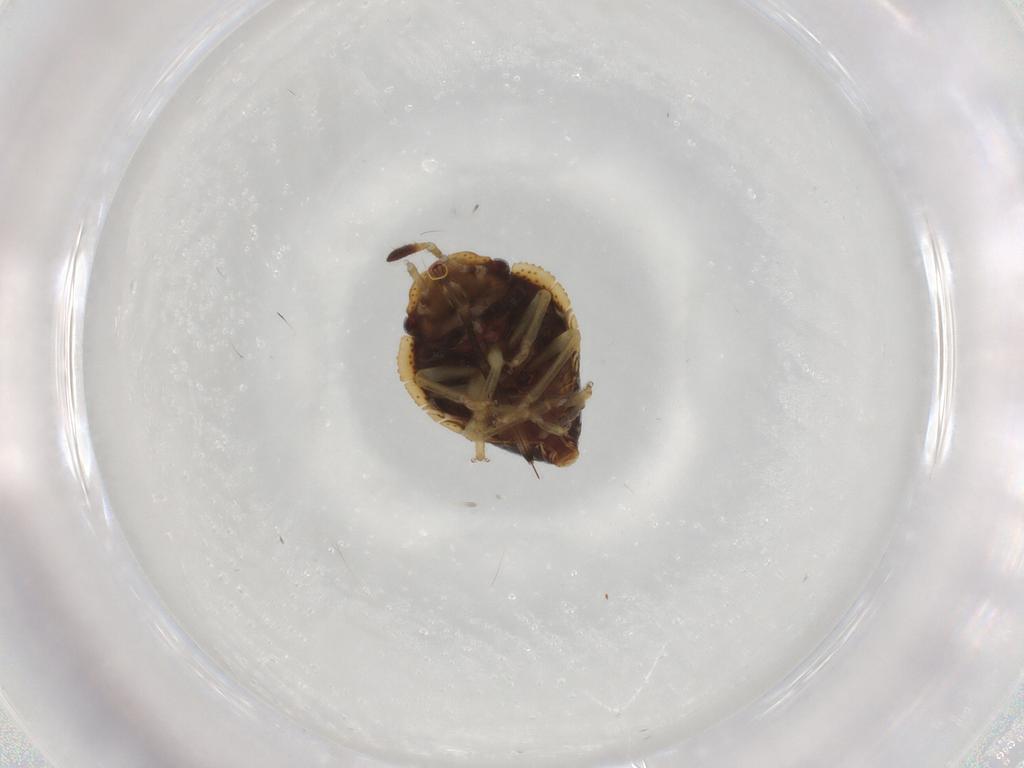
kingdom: Animalia
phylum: Arthropoda
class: Insecta
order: Hemiptera
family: Pentatomidae
